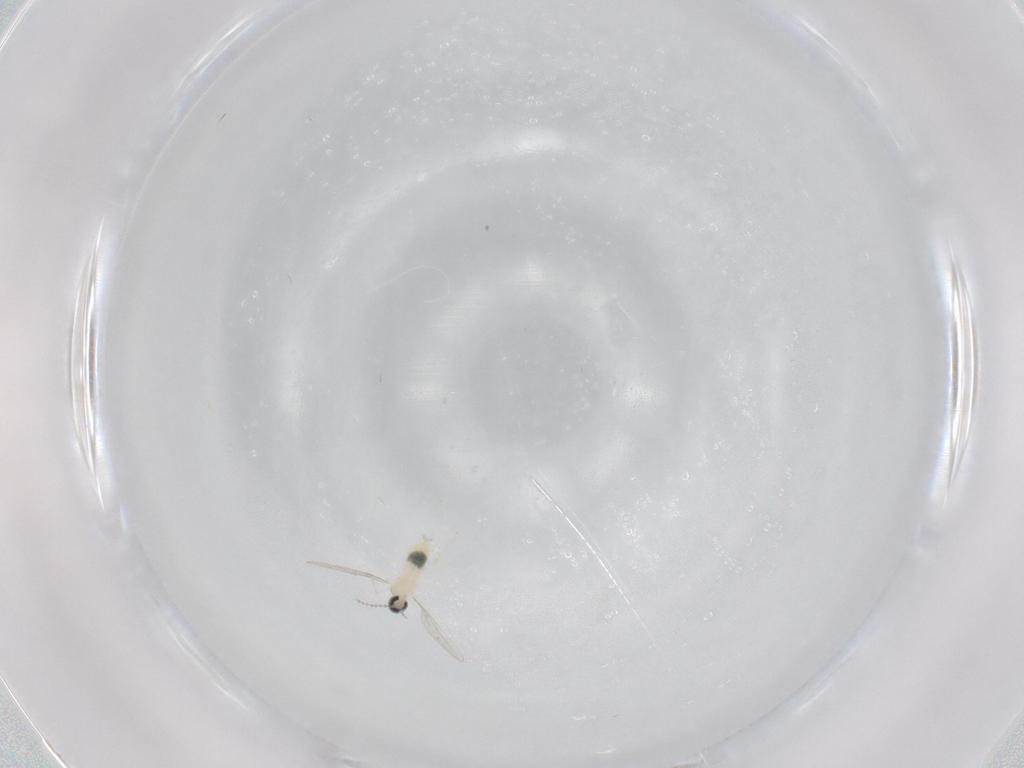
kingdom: Animalia
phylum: Arthropoda
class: Insecta
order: Diptera
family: Cecidomyiidae
